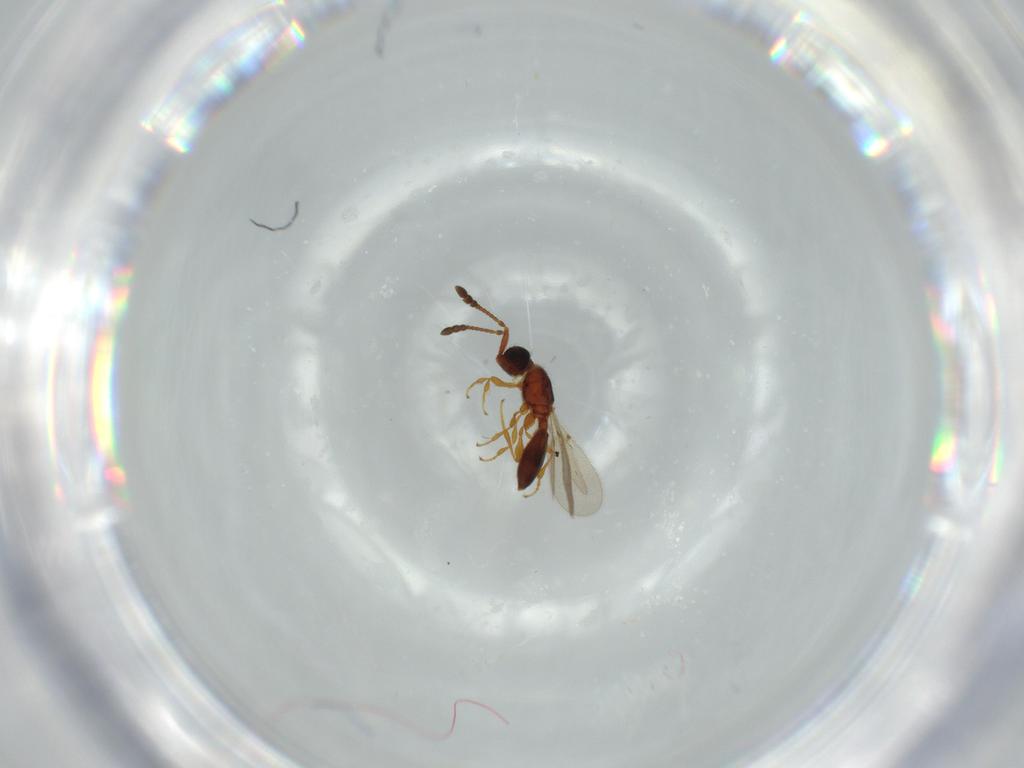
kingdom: Animalia
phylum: Arthropoda
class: Insecta
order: Hymenoptera
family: Diapriidae
